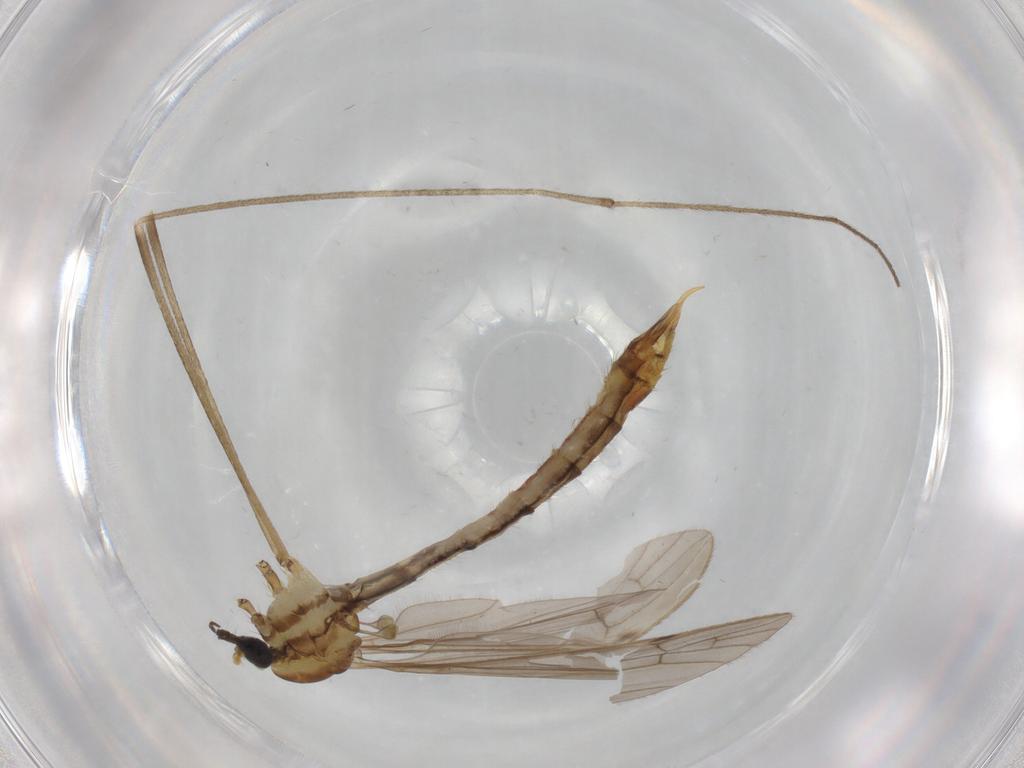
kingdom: Animalia
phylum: Arthropoda
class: Insecta
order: Diptera
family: Limoniidae
